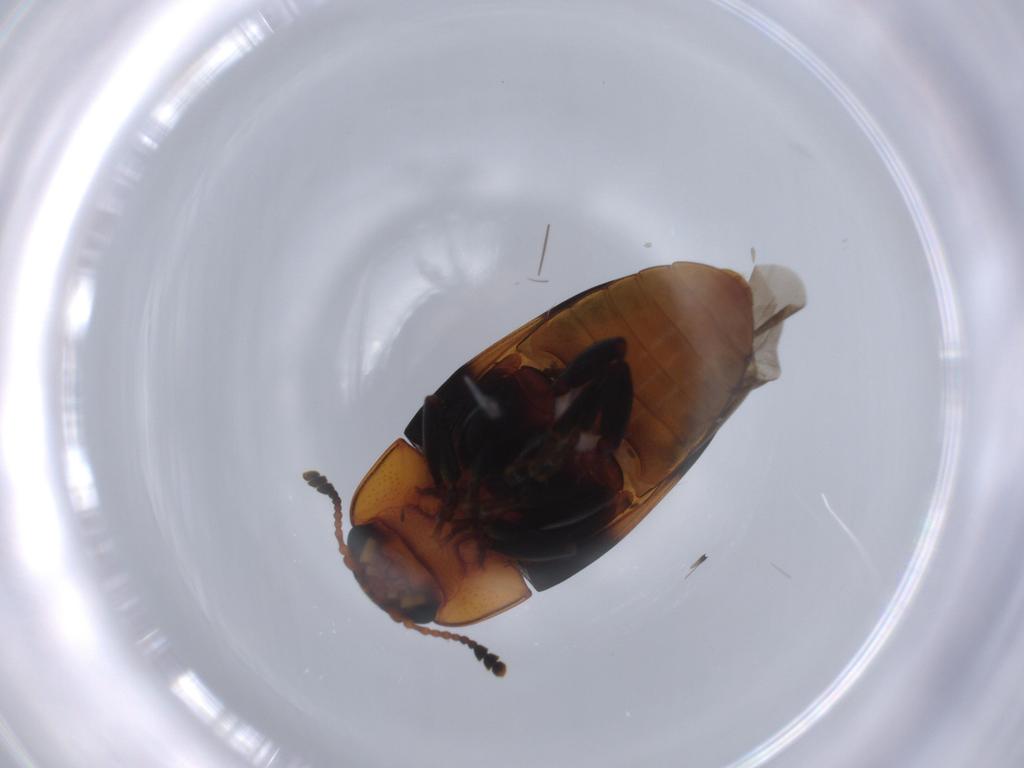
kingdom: Animalia
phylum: Arthropoda
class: Insecta
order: Coleoptera
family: Erotylidae
